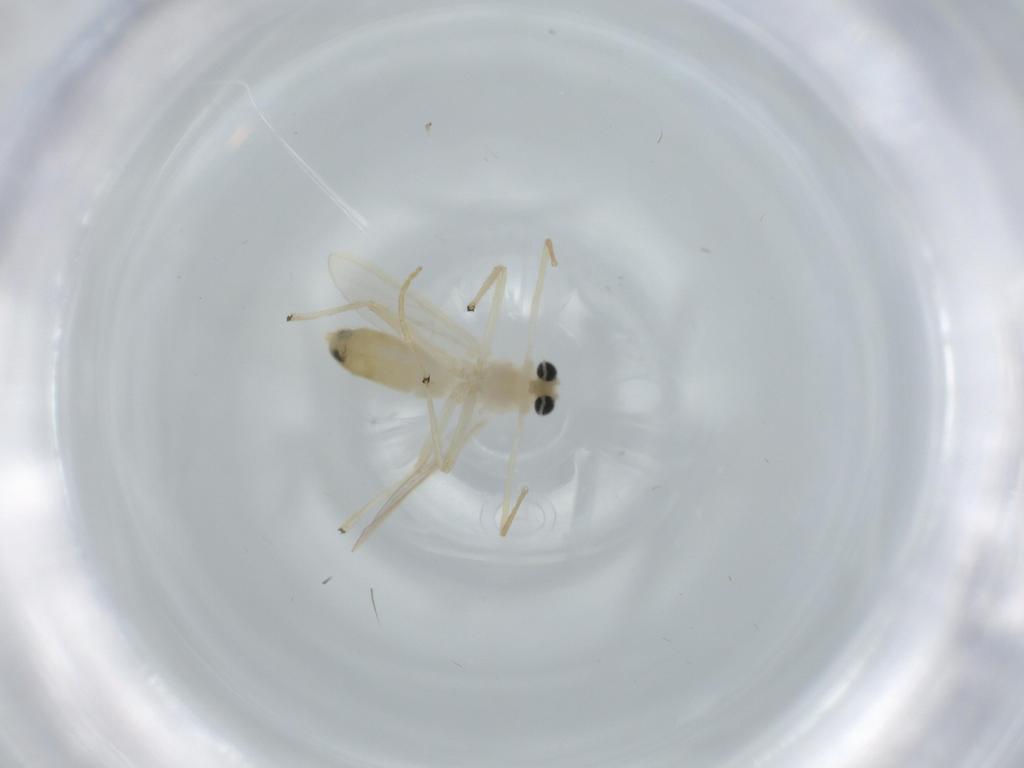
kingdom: Animalia
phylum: Arthropoda
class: Insecta
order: Diptera
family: Chironomidae
